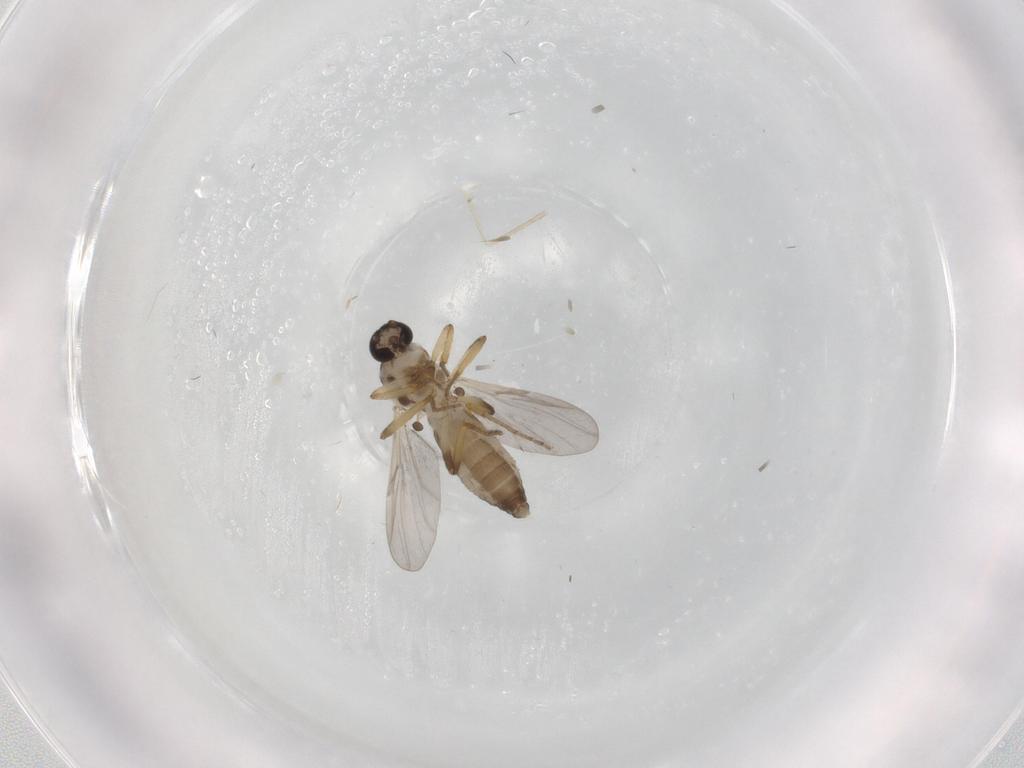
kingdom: Animalia
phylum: Arthropoda
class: Insecta
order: Diptera
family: Ceratopogonidae
